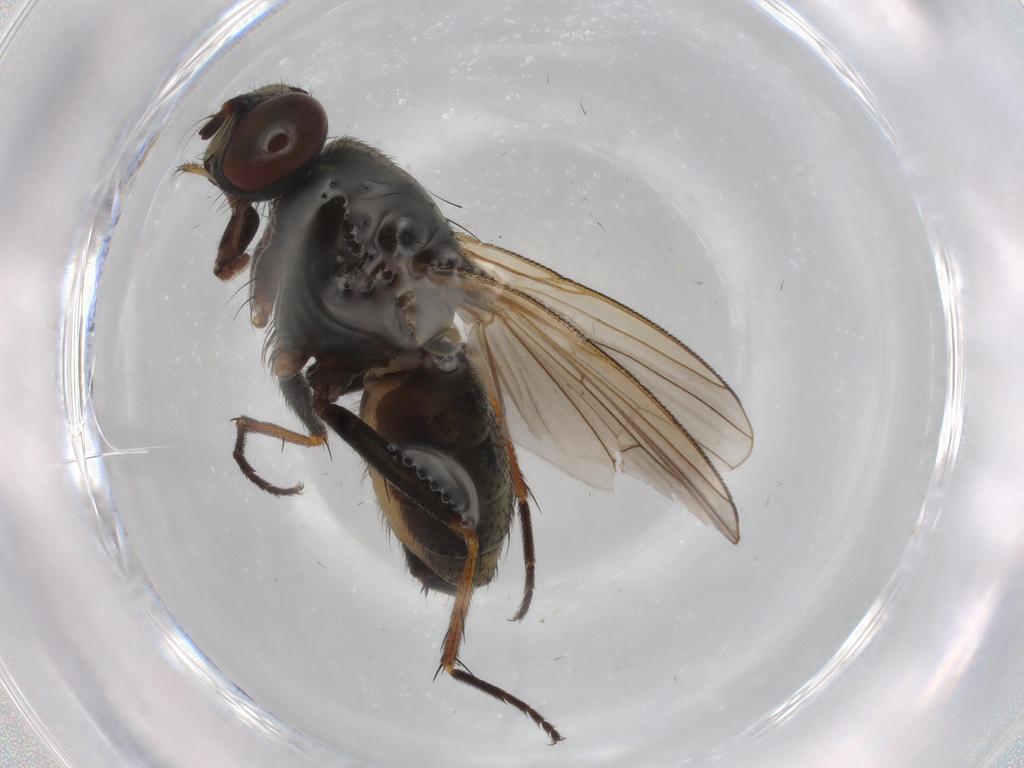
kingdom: Animalia
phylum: Arthropoda
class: Insecta
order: Diptera
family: Muscidae
